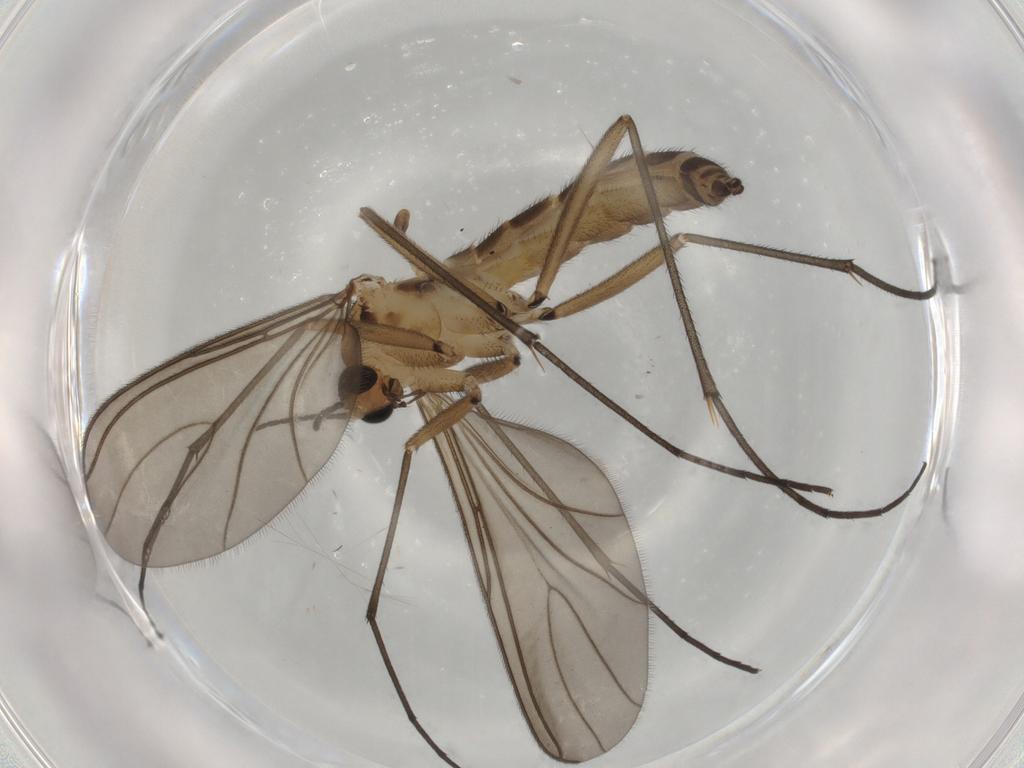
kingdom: Animalia
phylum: Arthropoda
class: Insecta
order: Diptera
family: Sciaridae
